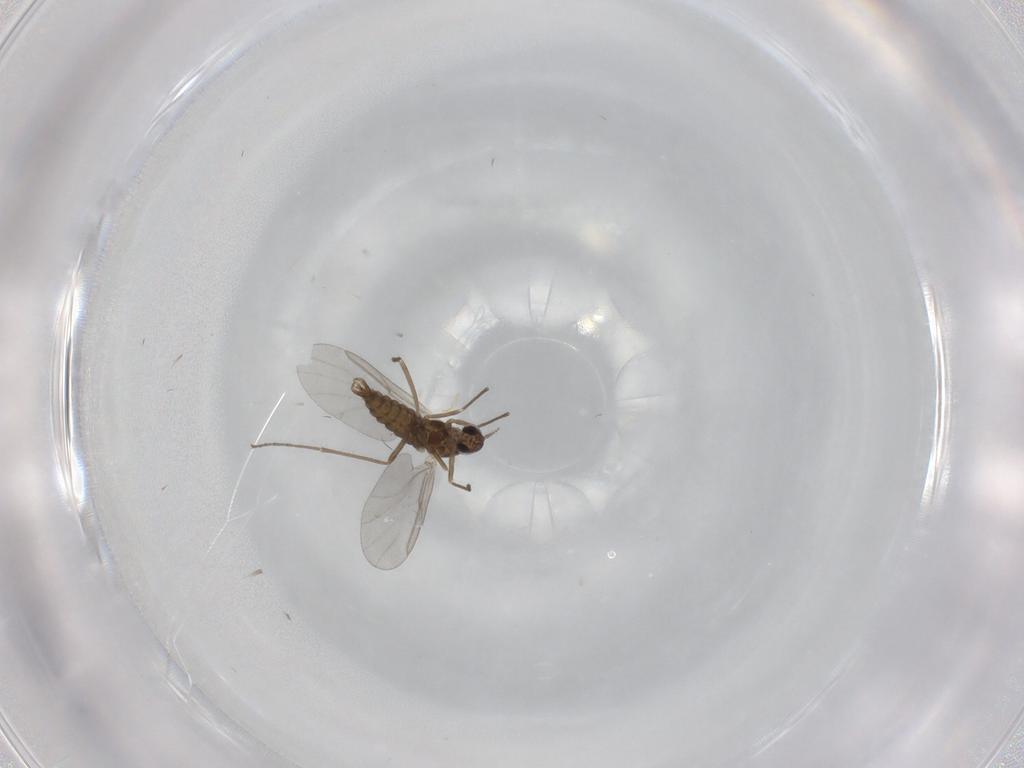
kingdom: Animalia
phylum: Arthropoda
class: Insecta
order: Diptera
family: Cecidomyiidae
